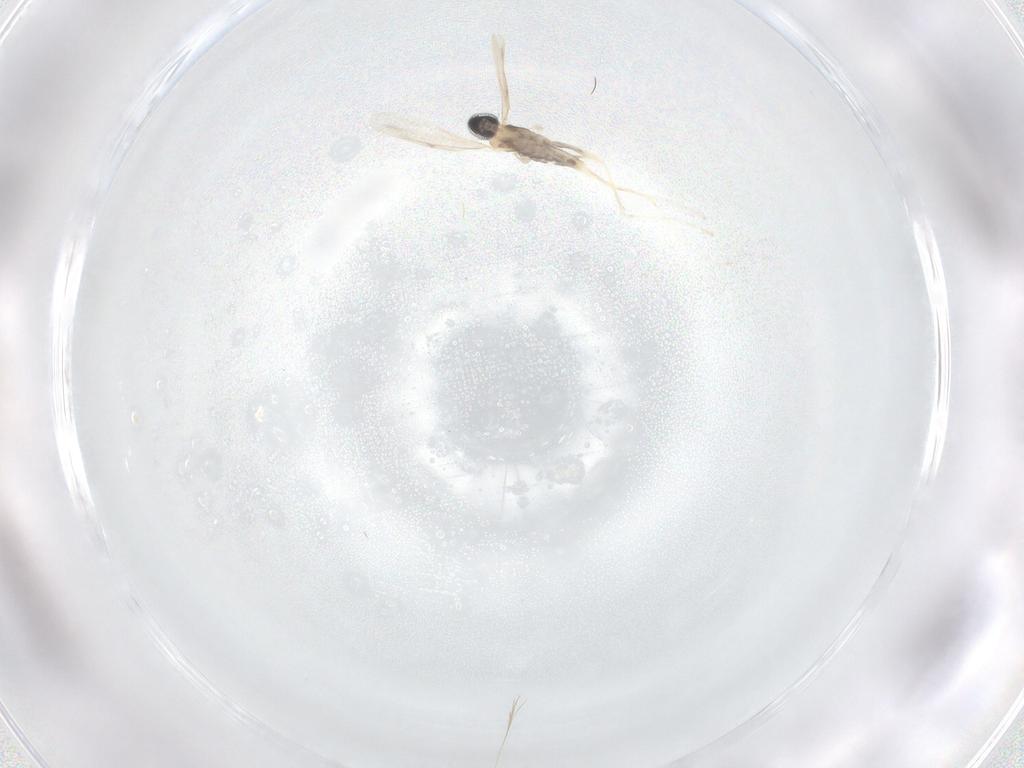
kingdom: Animalia
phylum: Arthropoda
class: Insecta
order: Diptera
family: Cecidomyiidae
